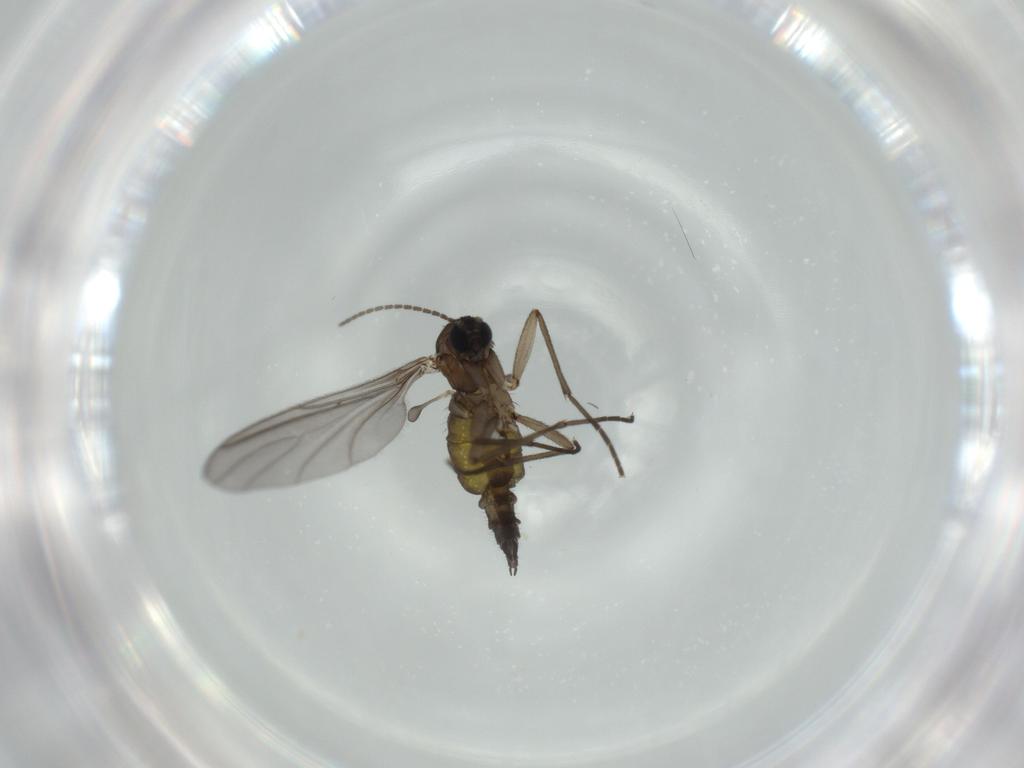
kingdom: Animalia
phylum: Arthropoda
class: Insecta
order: Diptera
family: Sciaridae
